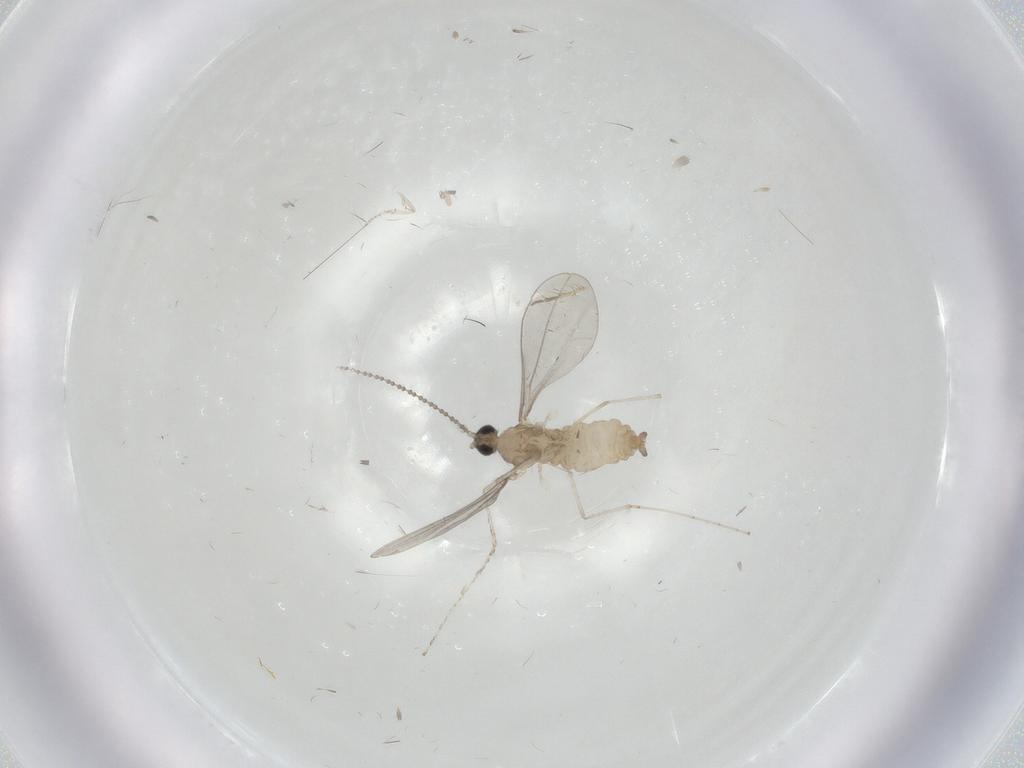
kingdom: Animalia
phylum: Arthropoda
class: Insecta
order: Diptera
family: Cecidomyiidae
